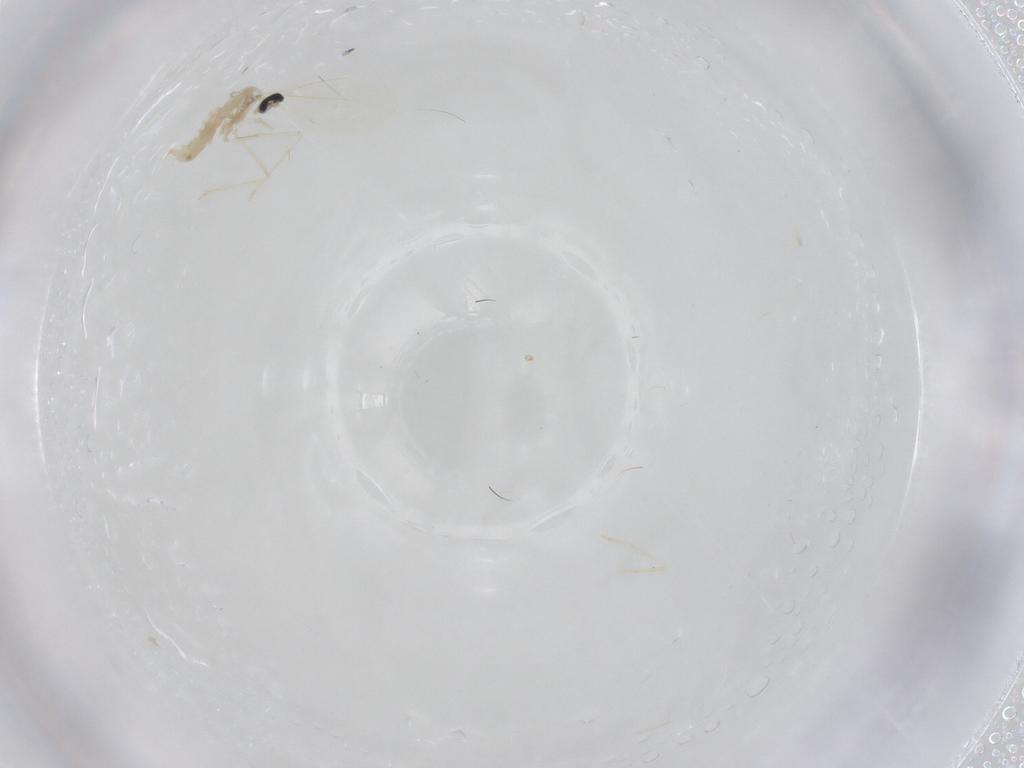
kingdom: Animalia
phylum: Arthropoda
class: Insecta
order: Diptera
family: Cecidomyiidae
